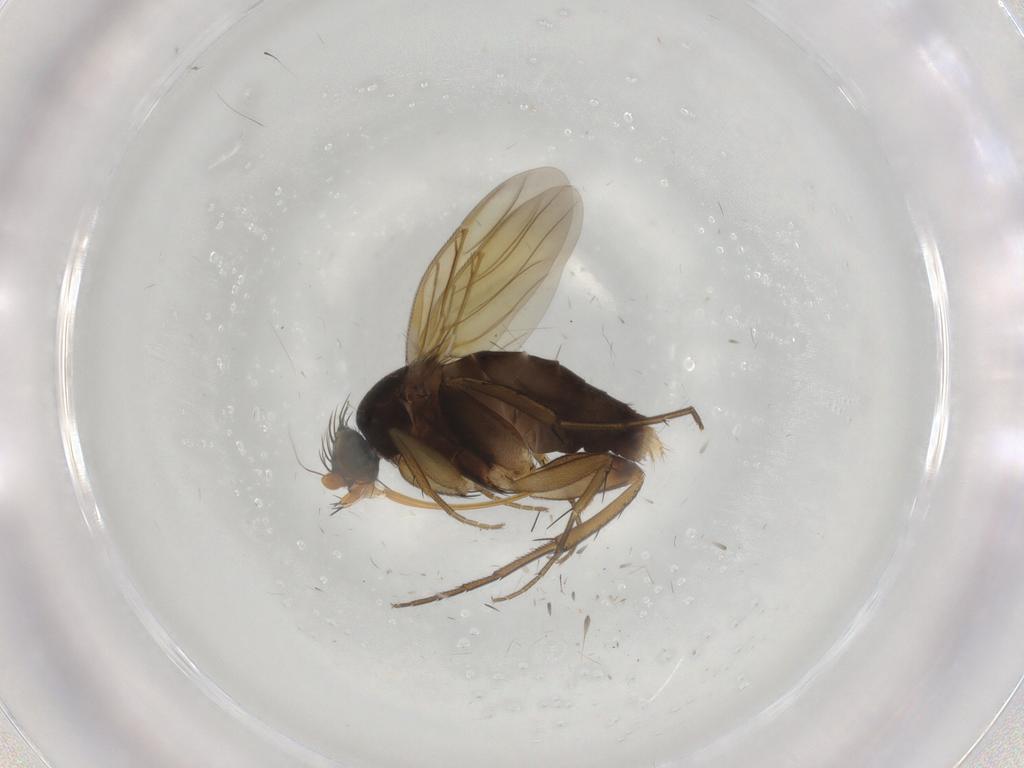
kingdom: Animalia
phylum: Arthropoda
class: Insecta
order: Diptera
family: Phoridae
